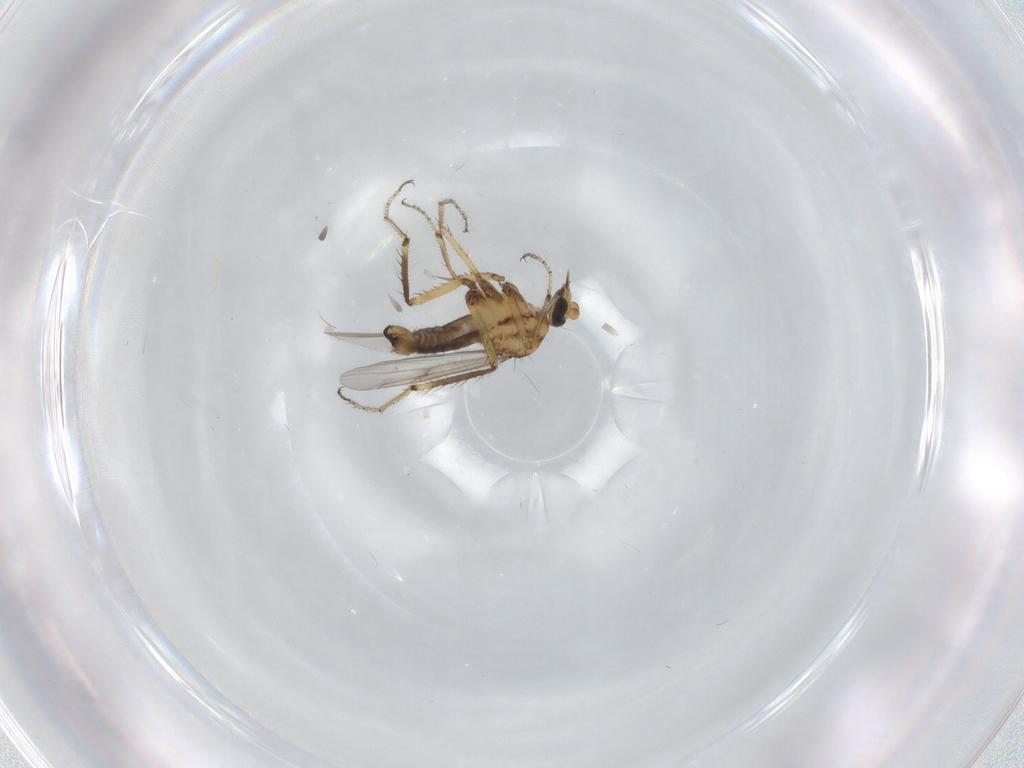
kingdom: Animalia
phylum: Arthropoda
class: Insecta
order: Diptera
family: Ceratopogonidae
